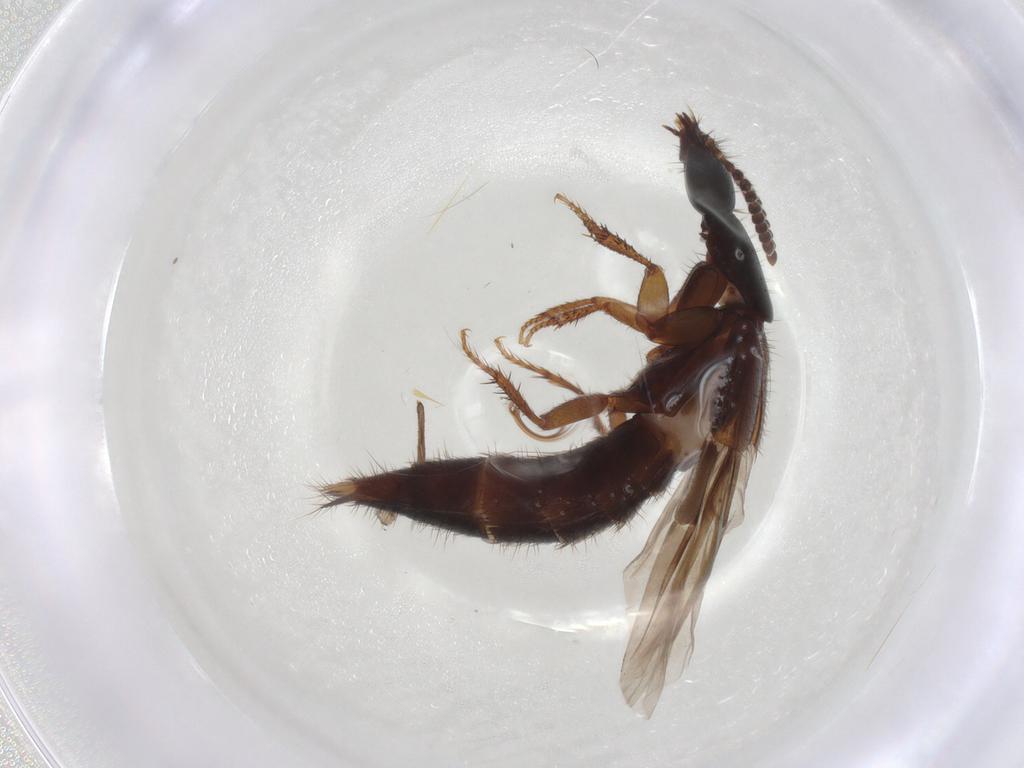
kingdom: Animalia
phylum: Arthropoda
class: Insecta
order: Coleoptera
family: Staphylinidae
